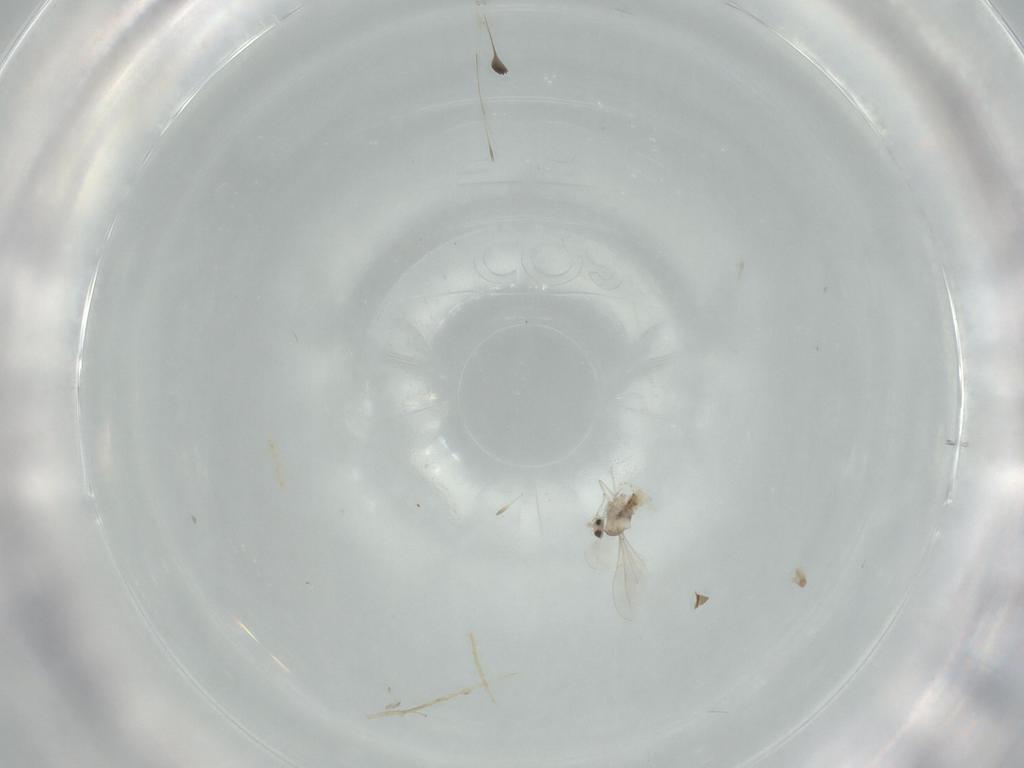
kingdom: Animalia
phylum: Arthropoda
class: Insecta
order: Diptera
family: Cecidomyiidae
